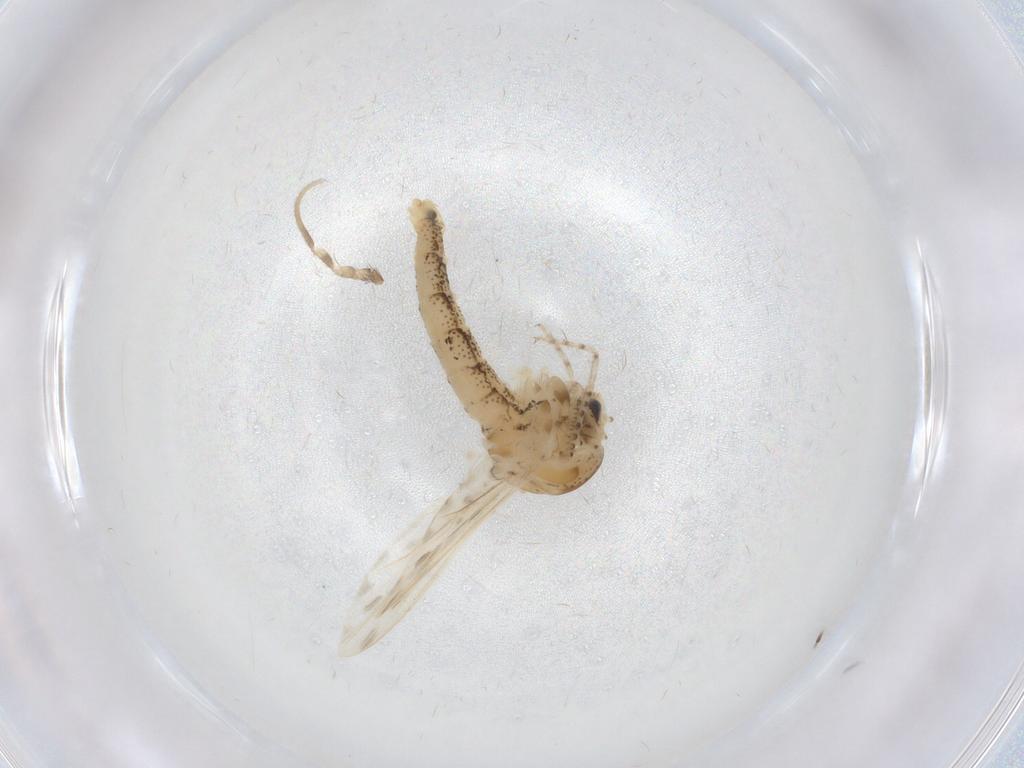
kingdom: Animalia
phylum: Arthropoda
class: Insecta
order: Diptera
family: Chaoboridae
